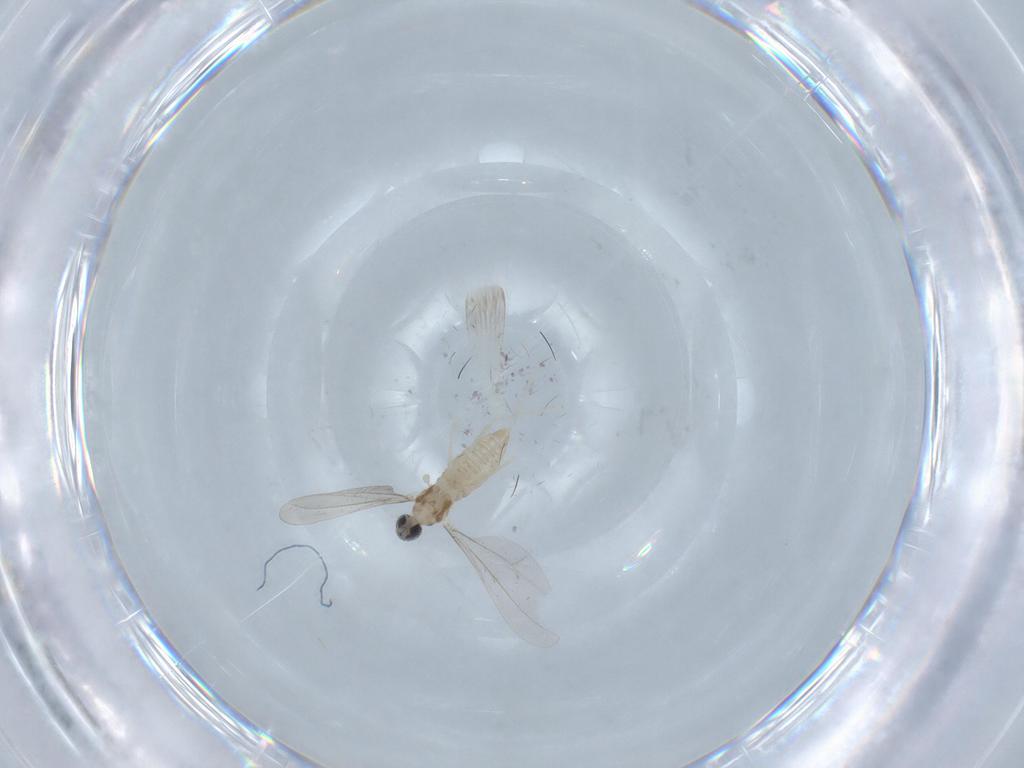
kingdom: Animalia
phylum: Arthropoda
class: Insecta
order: Diptera
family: Cecidomyiidae
